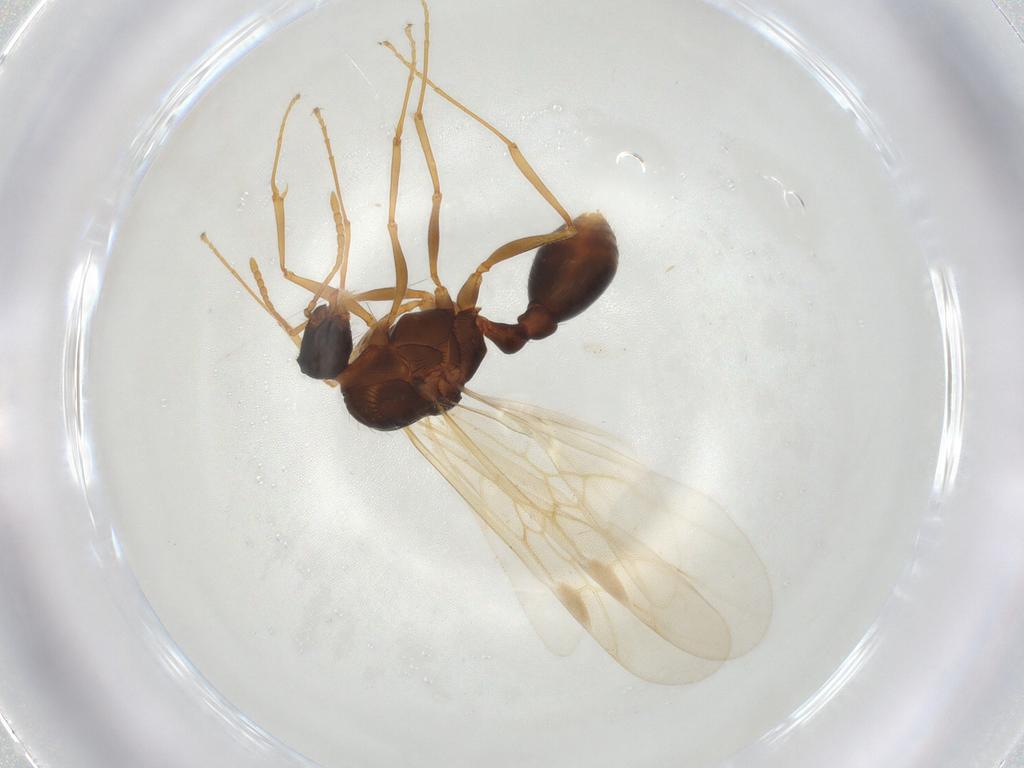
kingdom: Animalia
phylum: Arthropoda
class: Insecta
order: Hymenoptera
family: Formicidae
